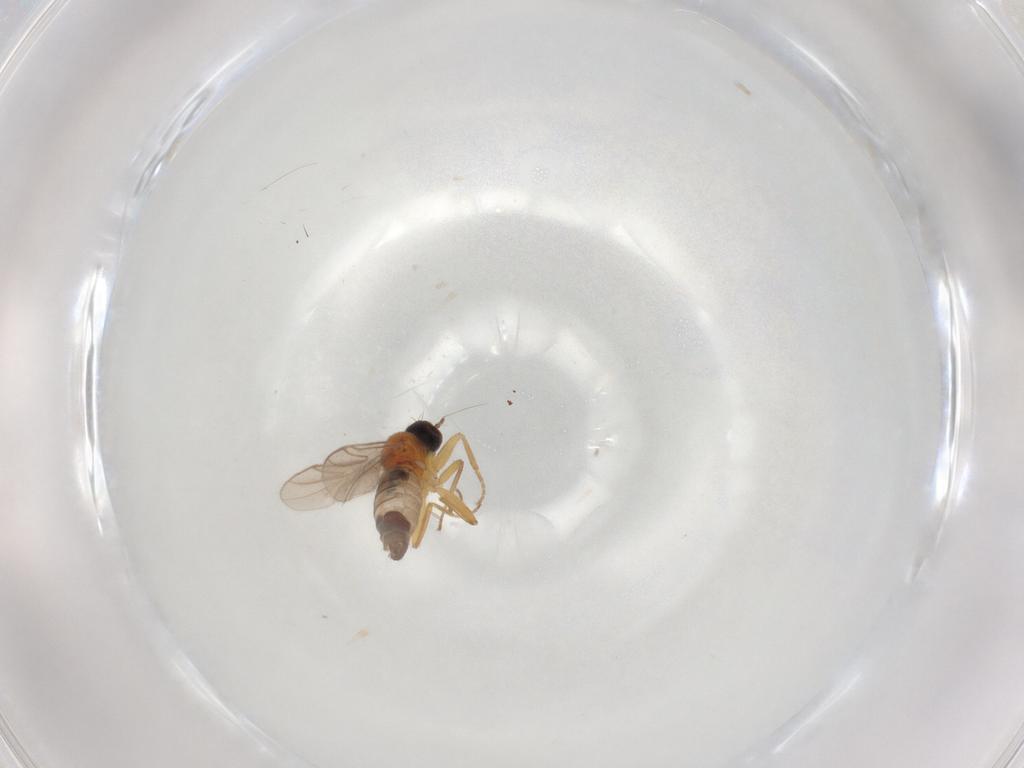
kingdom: Animalia
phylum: Arthropoda
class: Insecta
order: Diptera
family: Hybotidae
